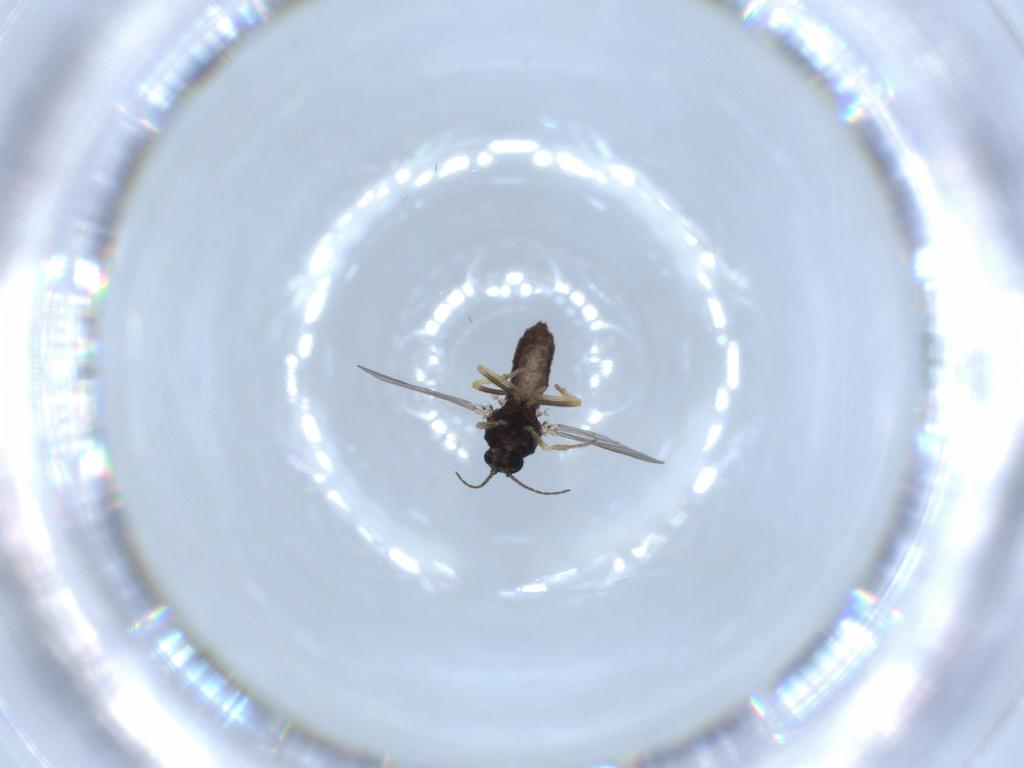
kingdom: Animalia
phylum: Arthropoda
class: Insecta
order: Diptera
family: Ceratopogonidae
